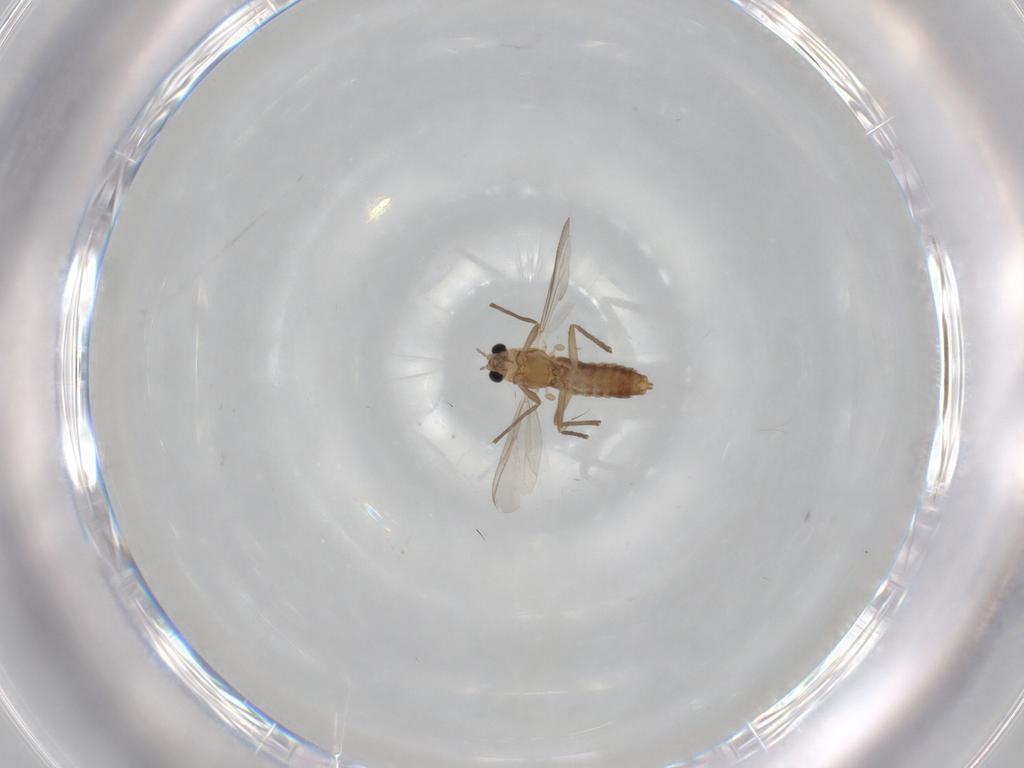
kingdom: Animalia
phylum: Arthropoda
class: Insecta
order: Diptera
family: Chironomidae
